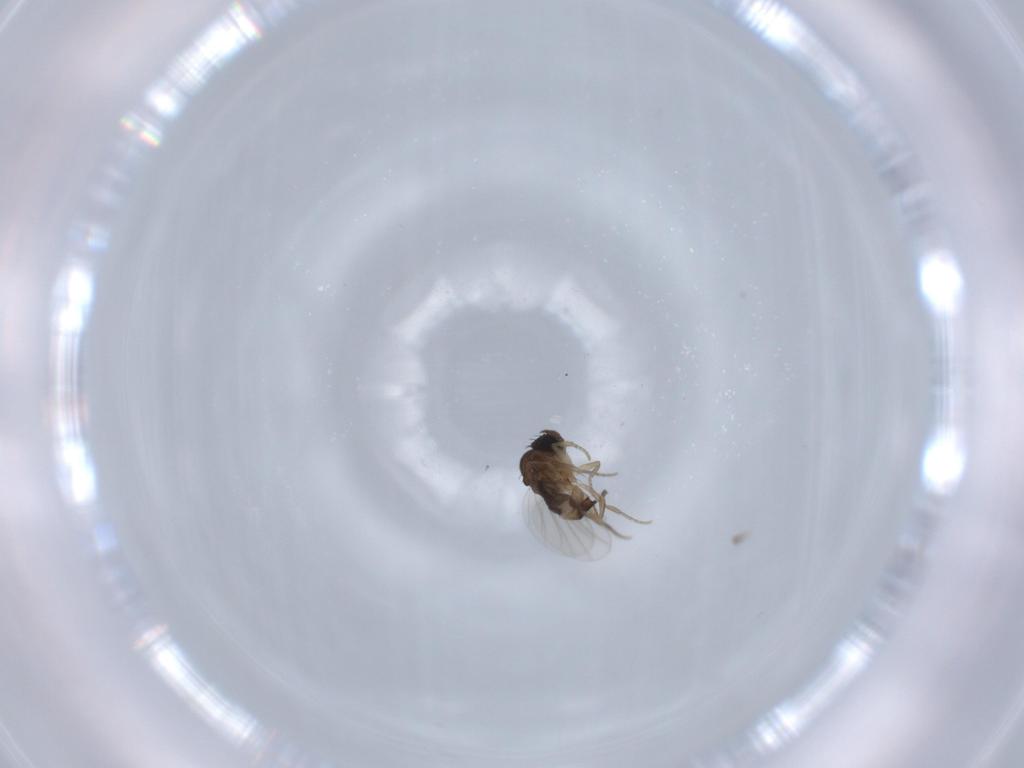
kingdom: Animalia
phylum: Arthropoda
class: Insecta
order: Diptera
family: Phoridae
